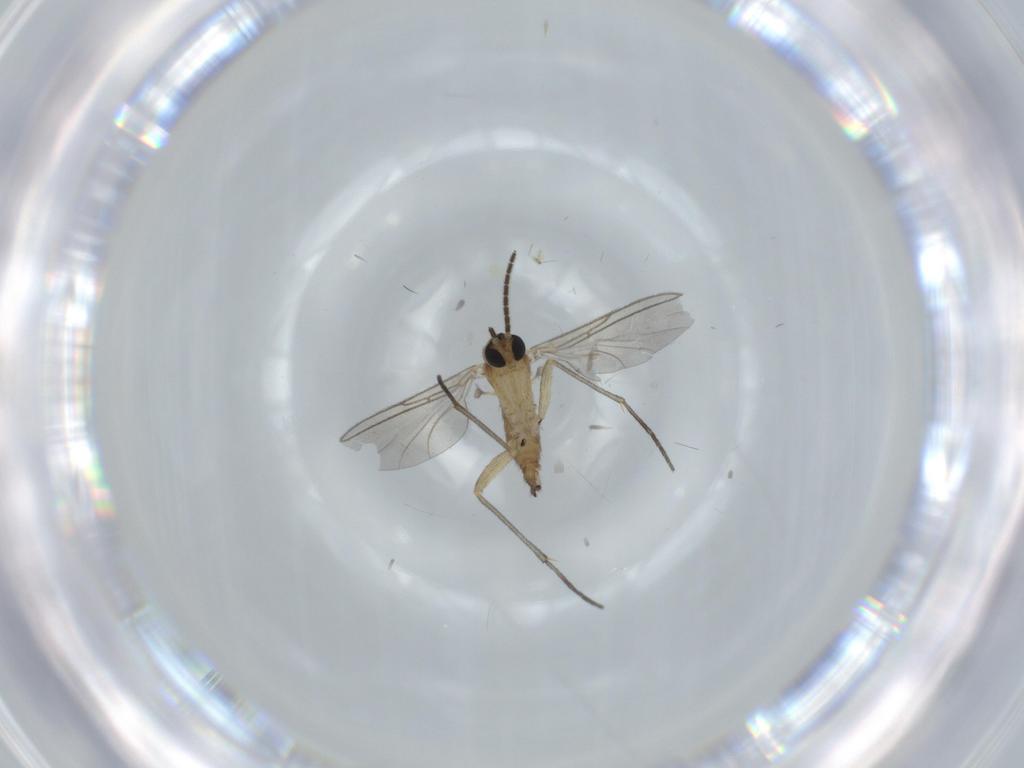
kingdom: Animalia
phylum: Arthropoda
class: Insecta
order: Diptera
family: Sciaridae
